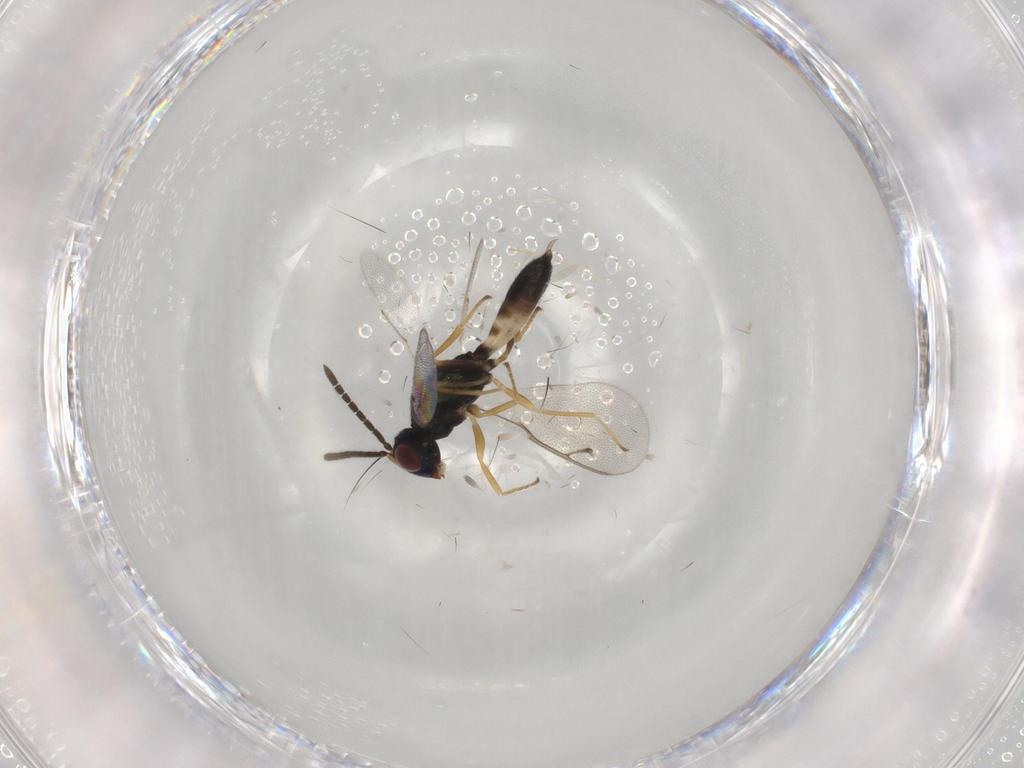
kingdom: Animalia
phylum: Arthropoda
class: Insecta
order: Hymenoptera
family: Pteromalidae
